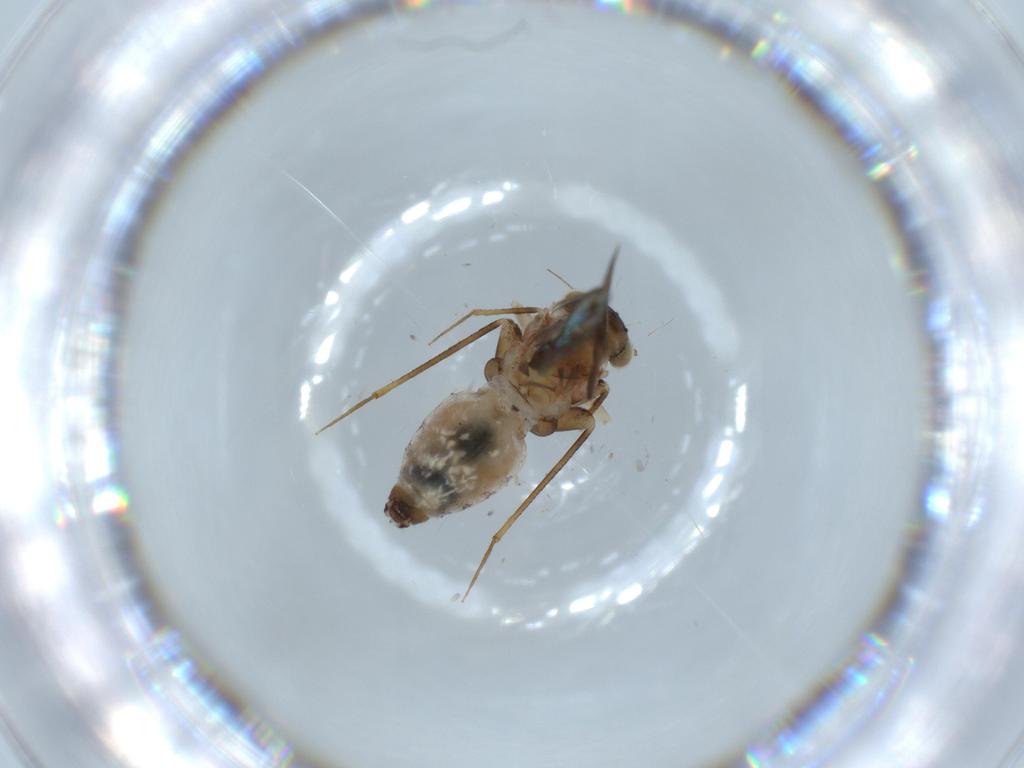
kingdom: Animalia
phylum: Arthropoda
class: Insecta
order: Psocodea
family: Lepidopsocidae
